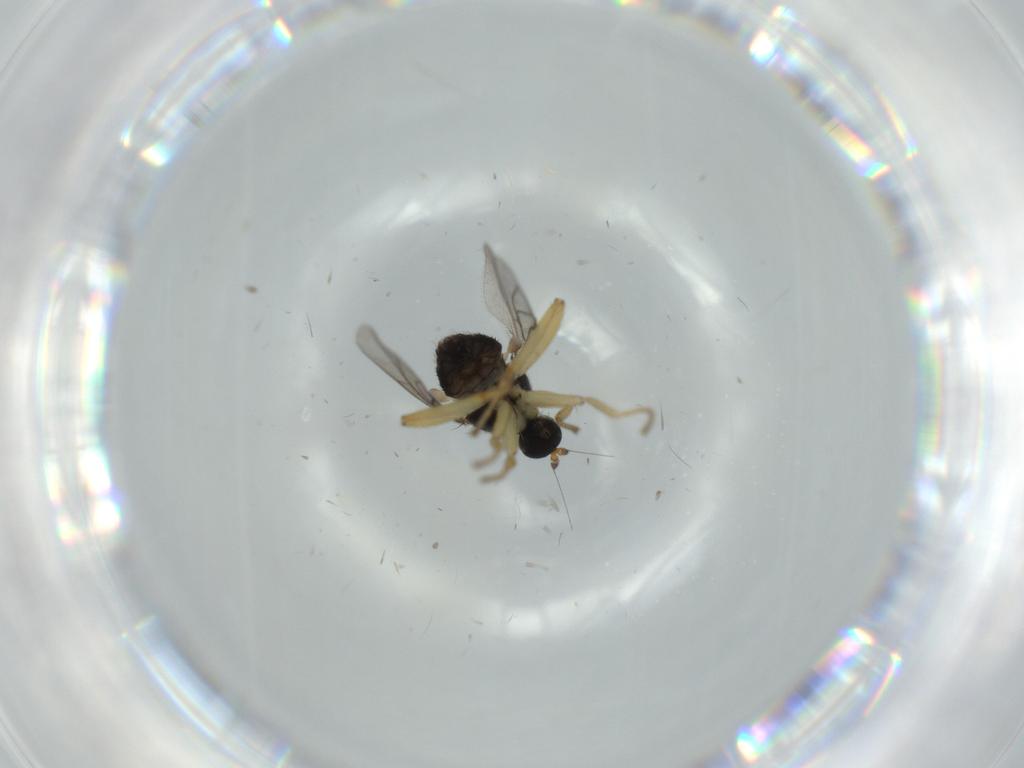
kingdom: Animalia
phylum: Arthropoda
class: Insecta
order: Diptera
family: Hybotidae
